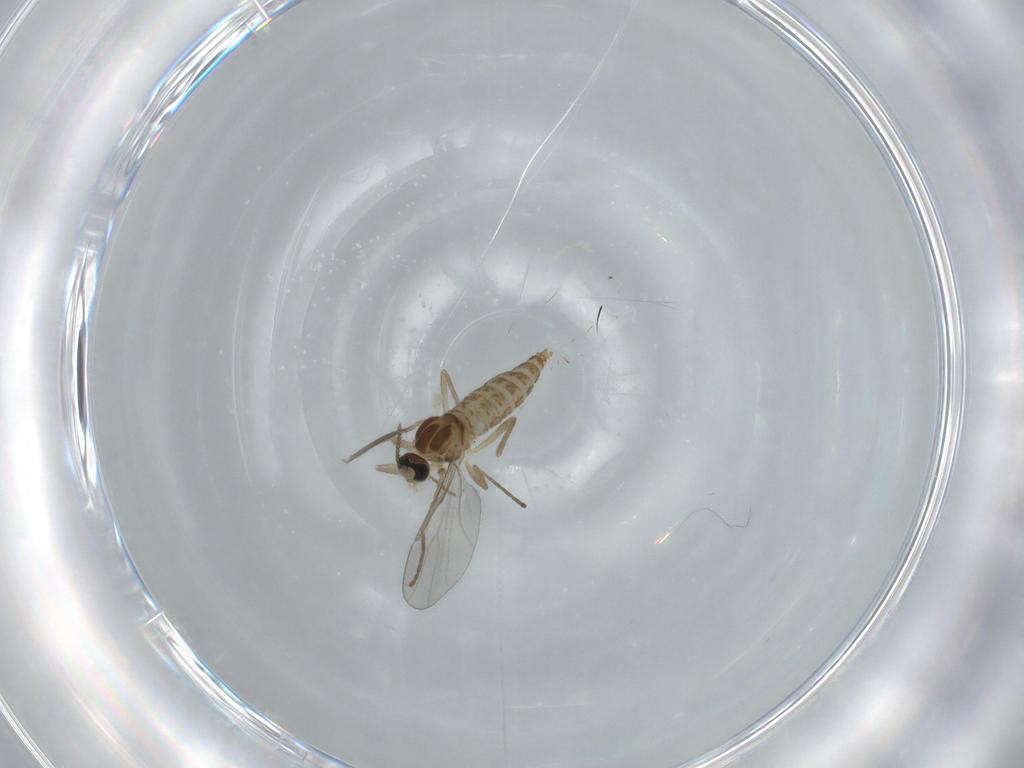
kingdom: Animalia
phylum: Arthropoda
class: Insecta
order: Diptera
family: Cecidomyiidae
